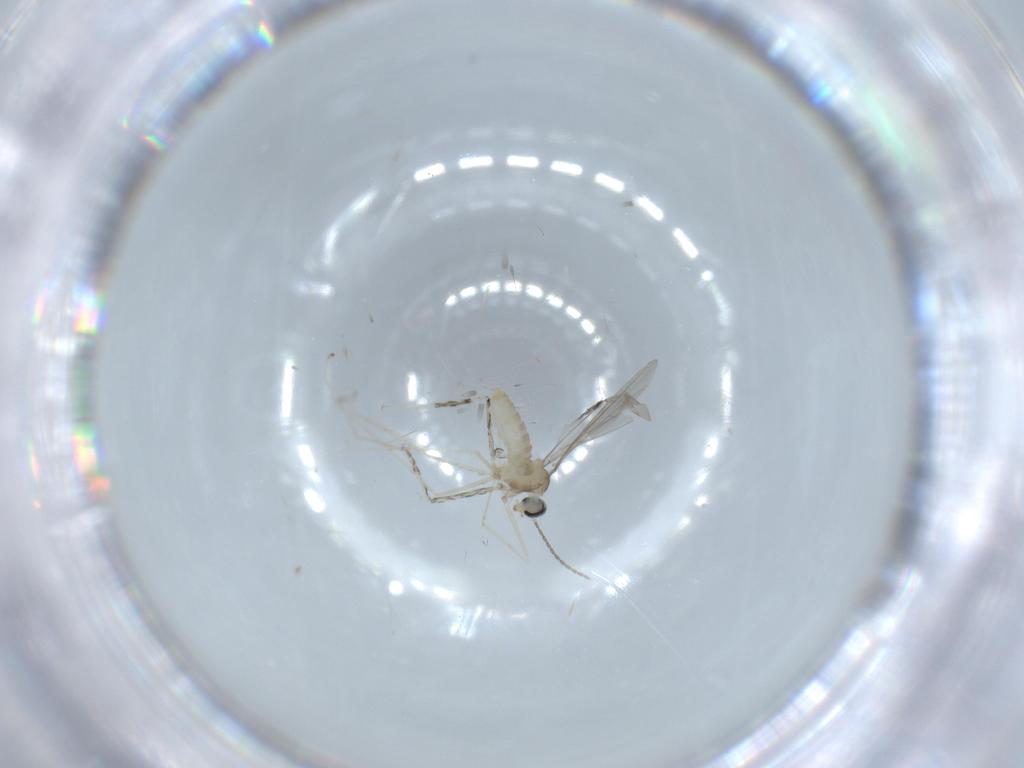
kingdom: Animalia
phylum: Arthropoda
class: Insecta
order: Diptera
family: Cecidomyiidae
